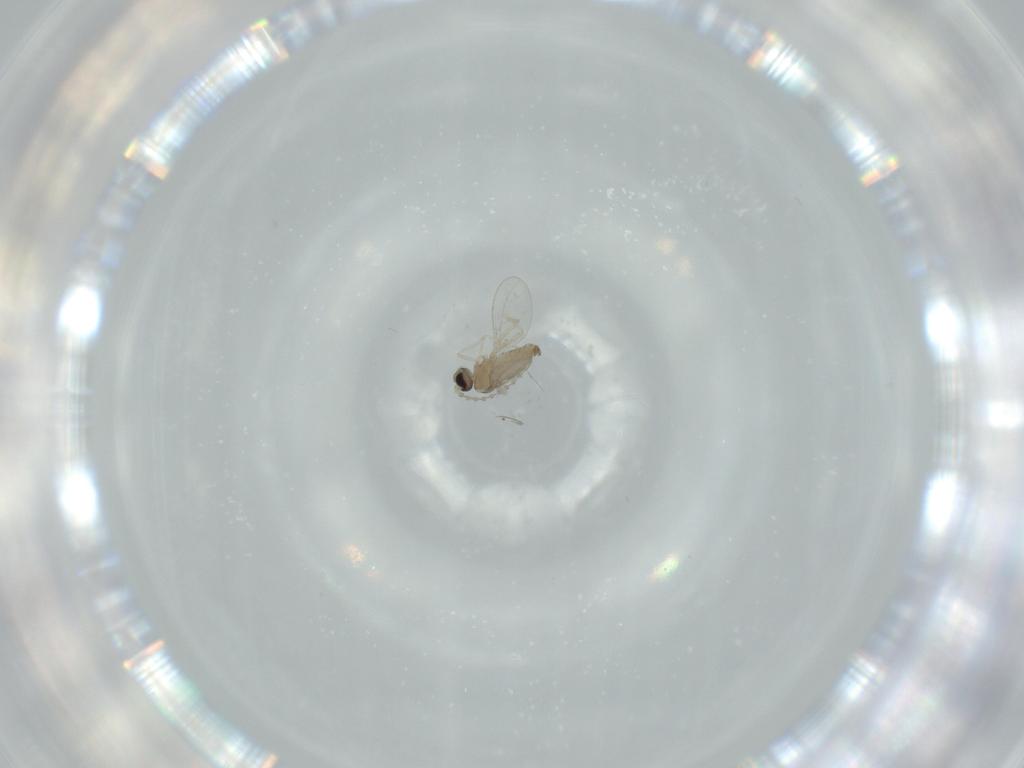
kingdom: Animalia
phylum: Arthropoda
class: Insecta
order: Diptera
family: Cecidomyiidae
